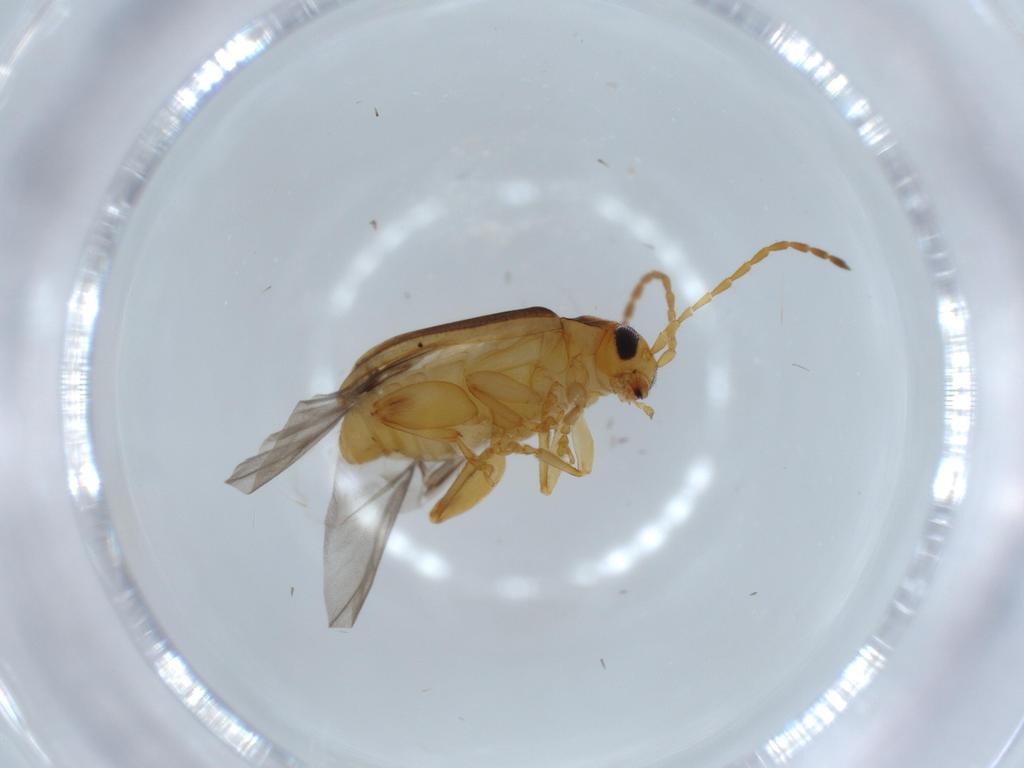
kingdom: Animalia
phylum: Arthropoda
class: Insecta
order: Coleoptera
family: Chrysomelidae
